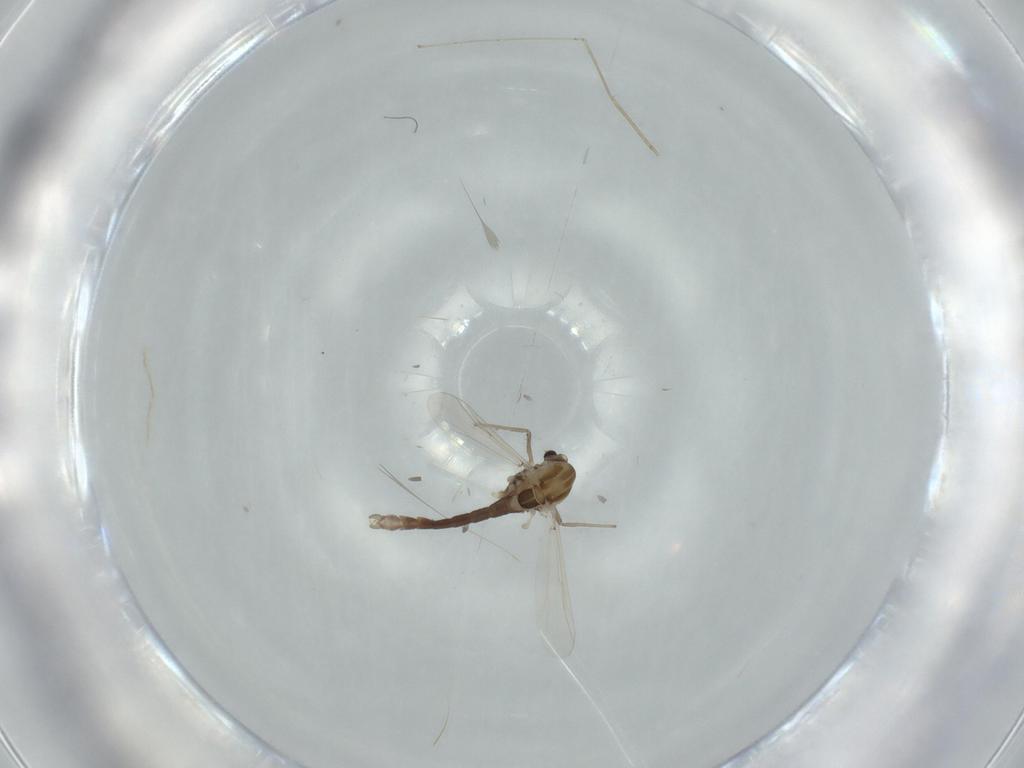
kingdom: Animalia
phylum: Arthropoda
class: Insecta
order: Diptera
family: Chironomidae
